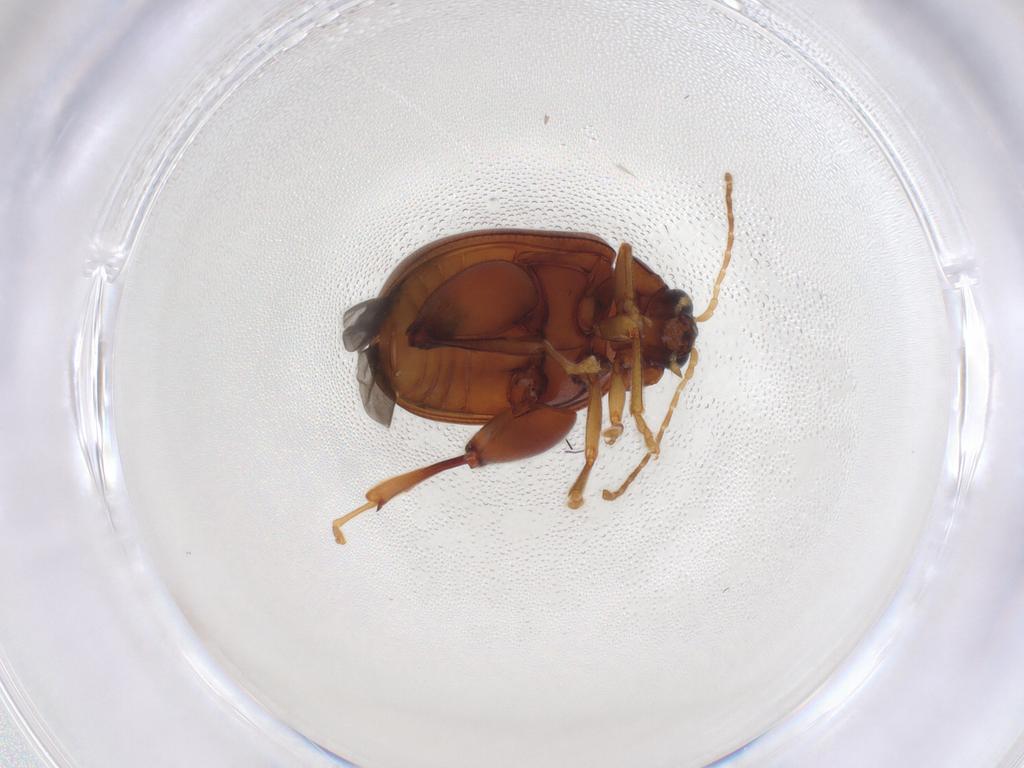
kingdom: Animalia
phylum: Arthropoda
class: Insecta
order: Coleoptera
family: Chrysomelidae
